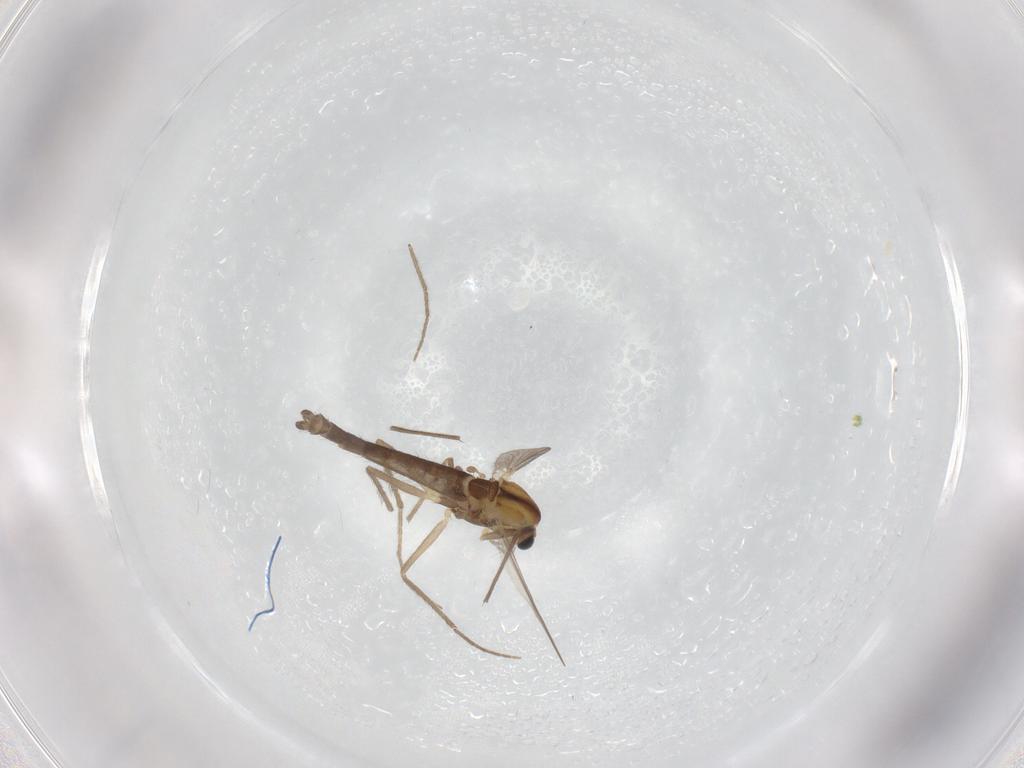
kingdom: Animalia
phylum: Arthropoda
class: Insecta
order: Diptera
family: Chironomidae
